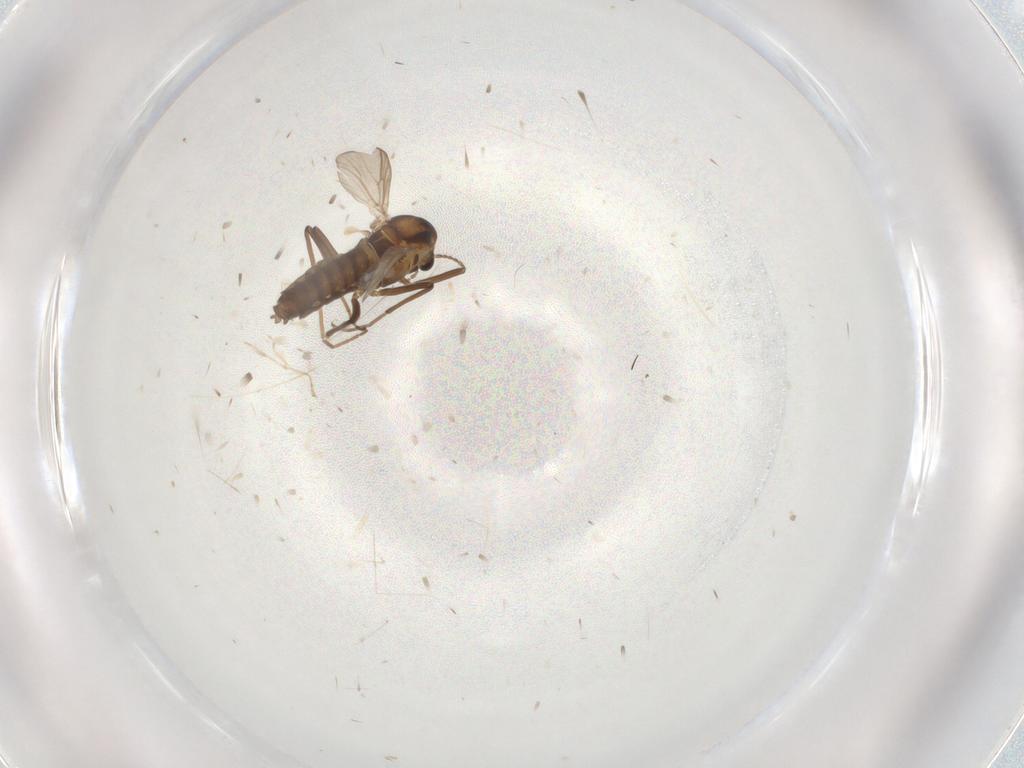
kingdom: Animalia
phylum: Arthropoda
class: Insecta
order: Diptera
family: Chironomidae
